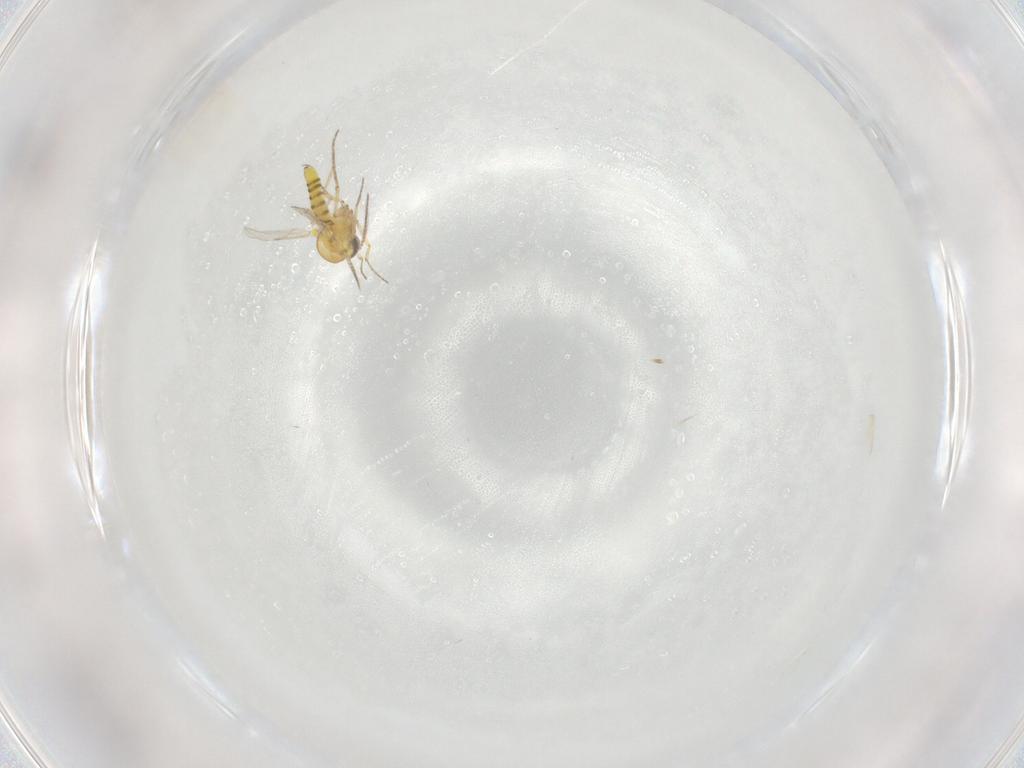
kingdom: Animalia
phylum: Arthropoda
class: Insecta
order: Diptera
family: Ceratopogonidae
